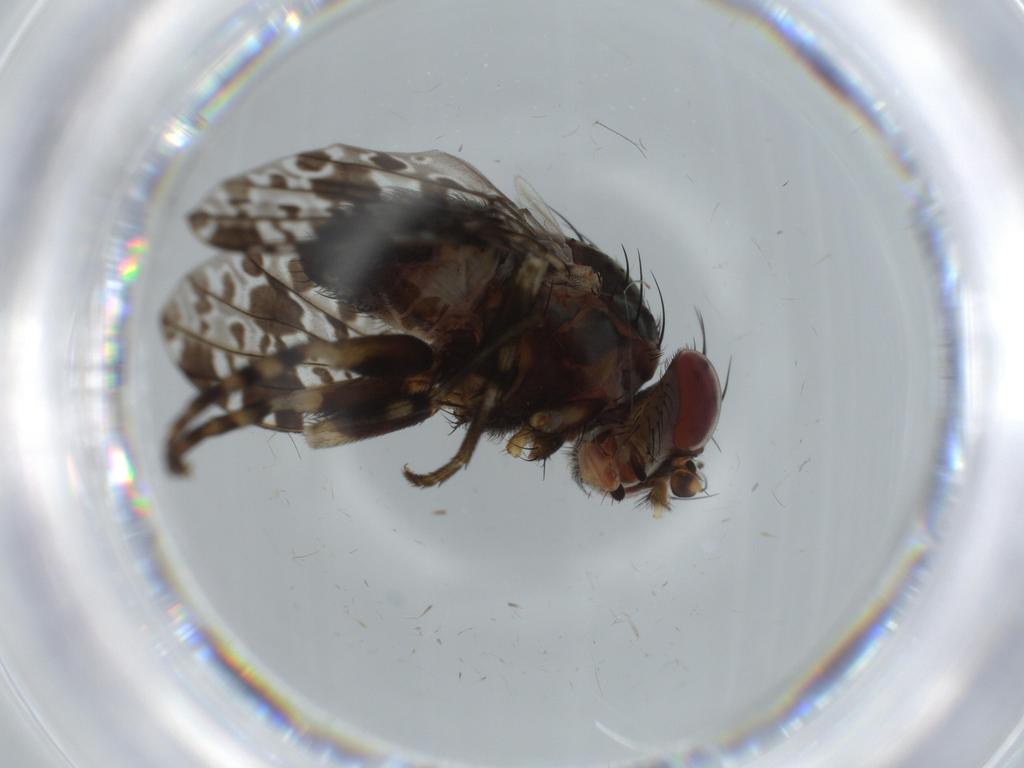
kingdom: Animalia
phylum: Arthropoda
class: Insecta
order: Diptera
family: Odiniidae
